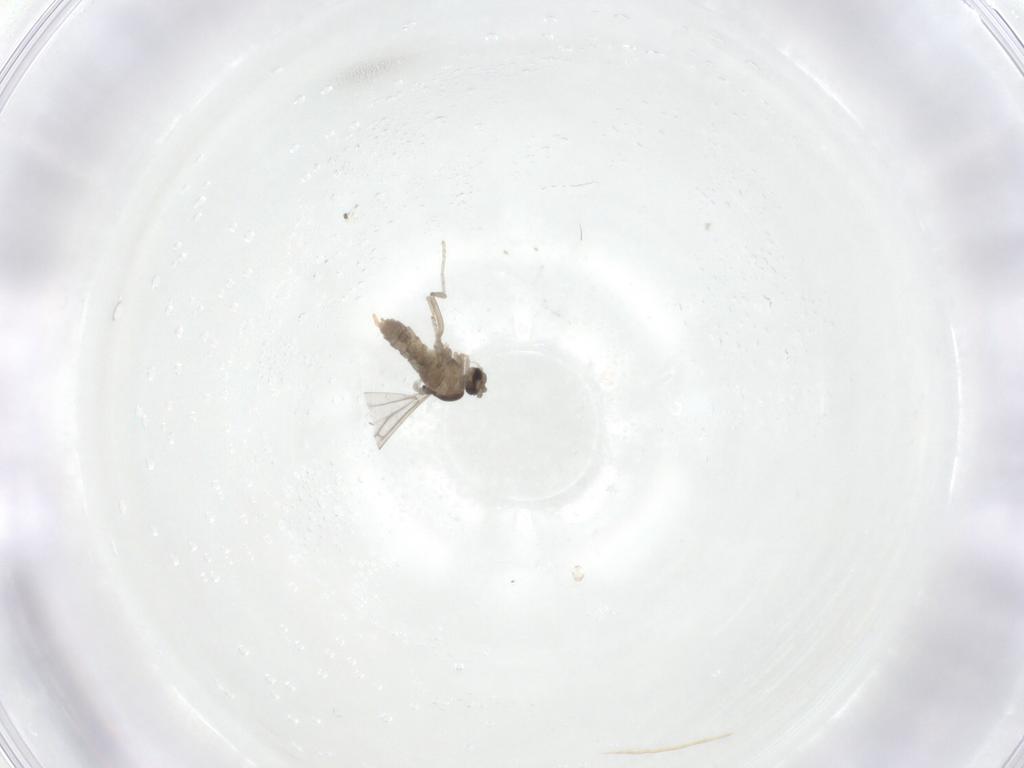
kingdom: Animalia
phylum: Arthropoda
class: Insecta
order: Diptera
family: Cecidomyiidae
